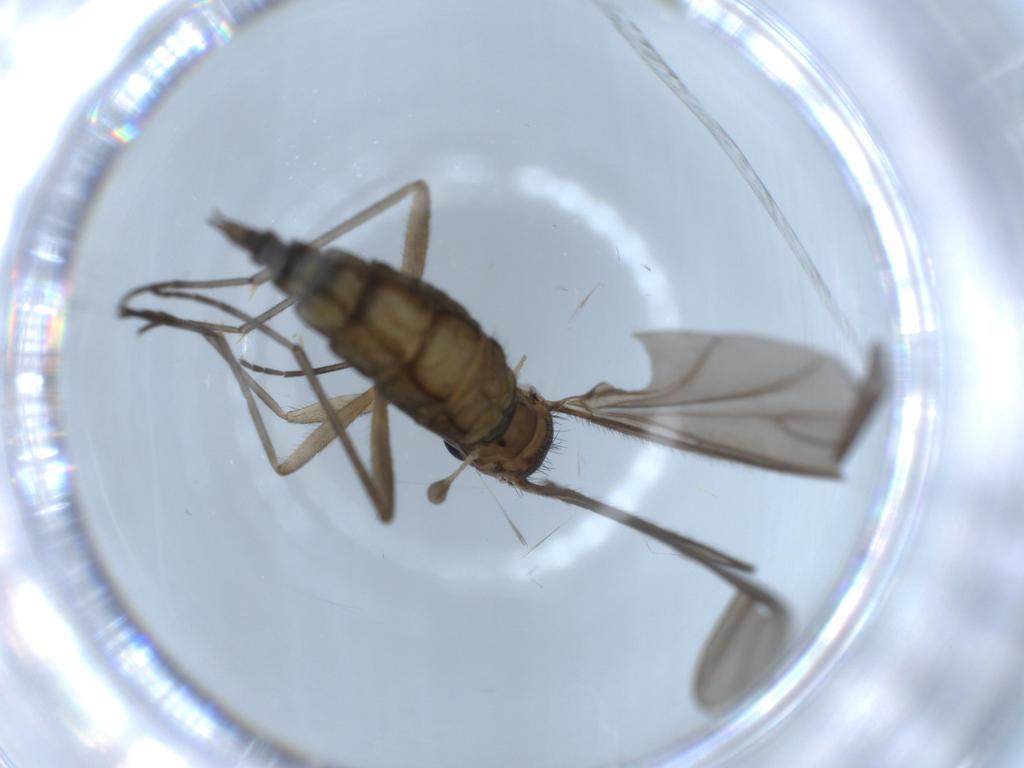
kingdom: Animalia
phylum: Arthropoda
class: Insecta
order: Diptera
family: Sciaridae
